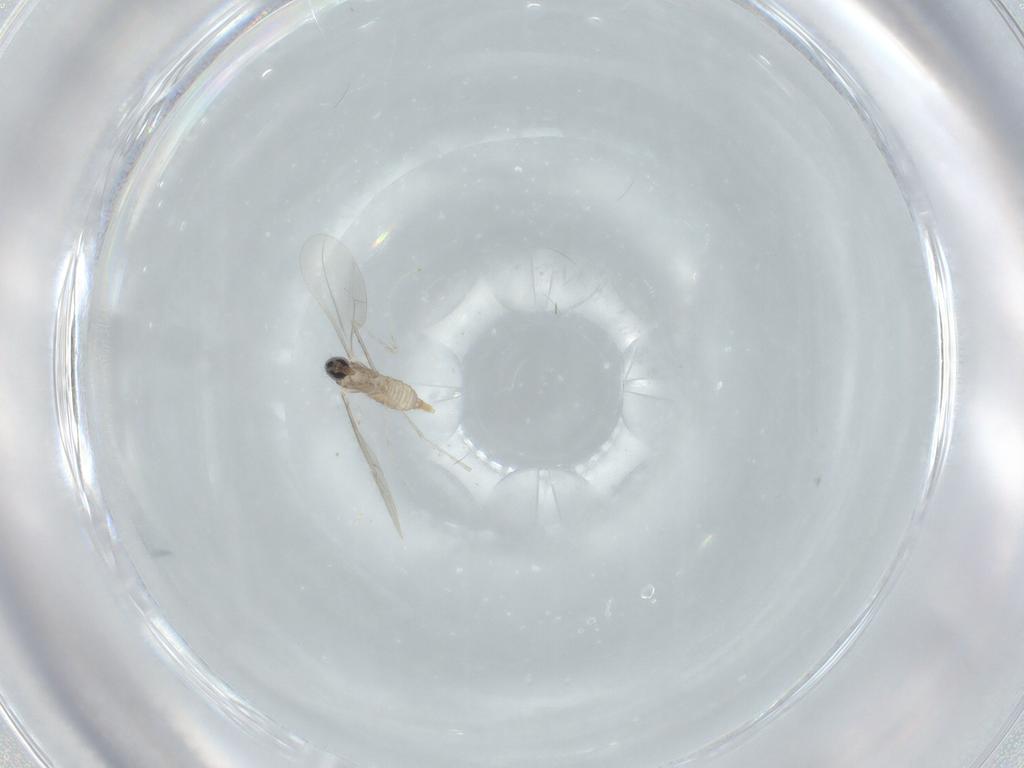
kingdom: Animalia
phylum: Arthropoda
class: Insecta
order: Diptera
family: Cecidomyiidae
